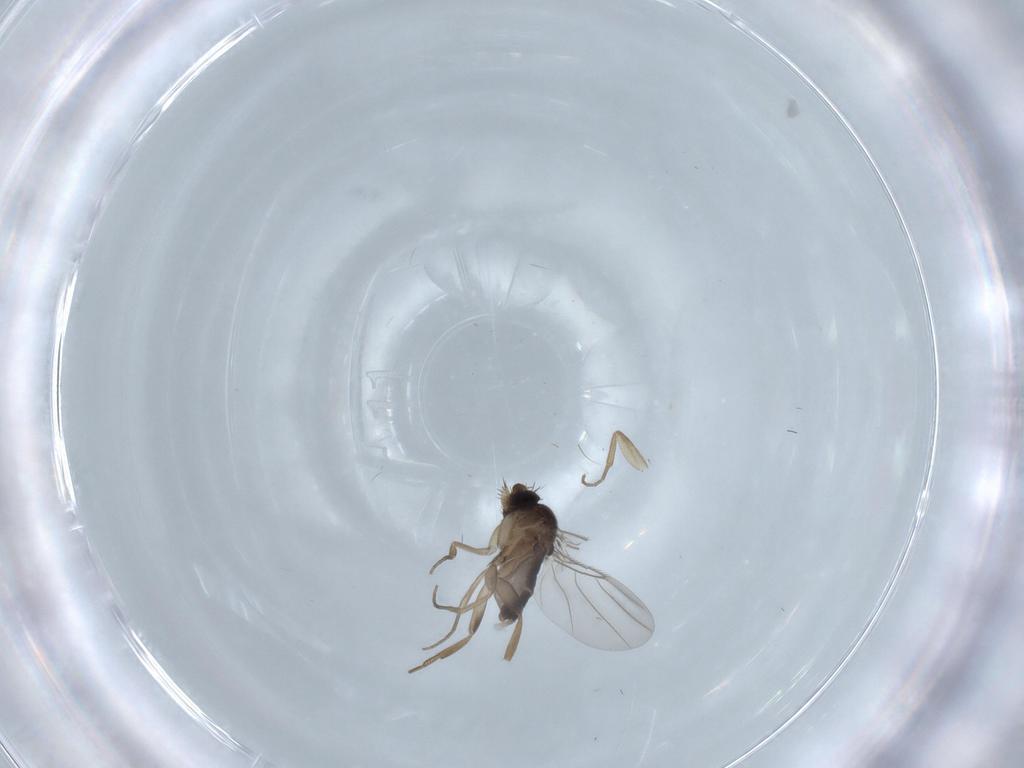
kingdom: Animalia
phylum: Arthropoda
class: Insecta
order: Diptera
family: Phoridae
